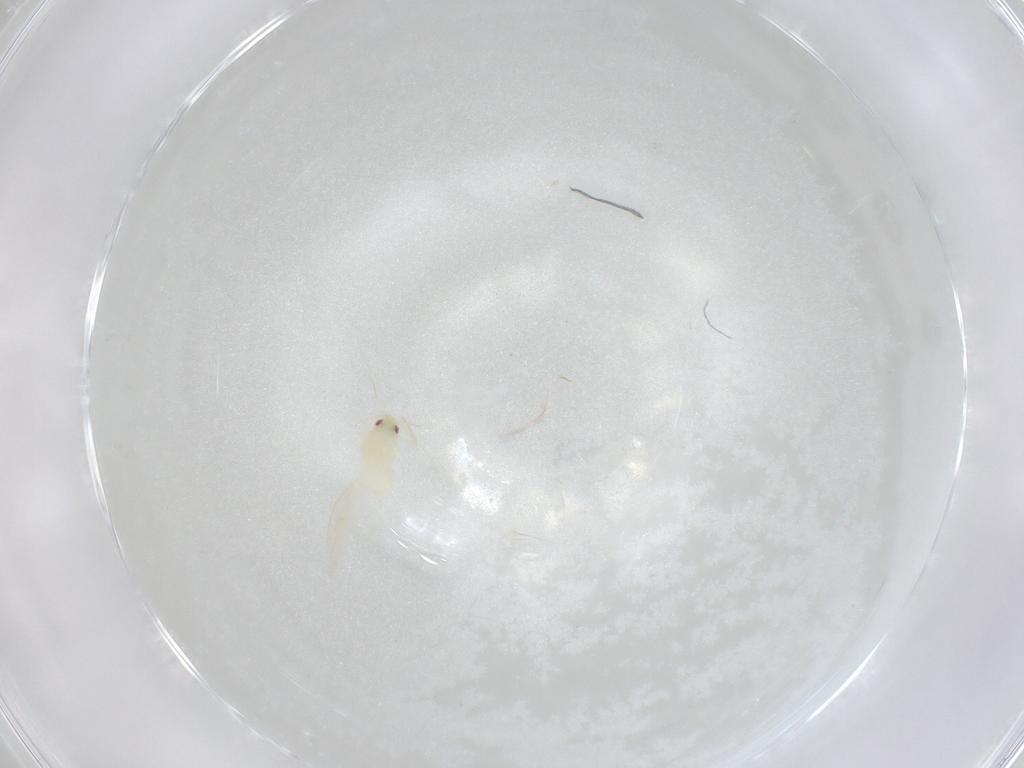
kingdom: Animalia
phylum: Arthropoda
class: Insecta
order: Hemiptera
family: Aleyrodidae
